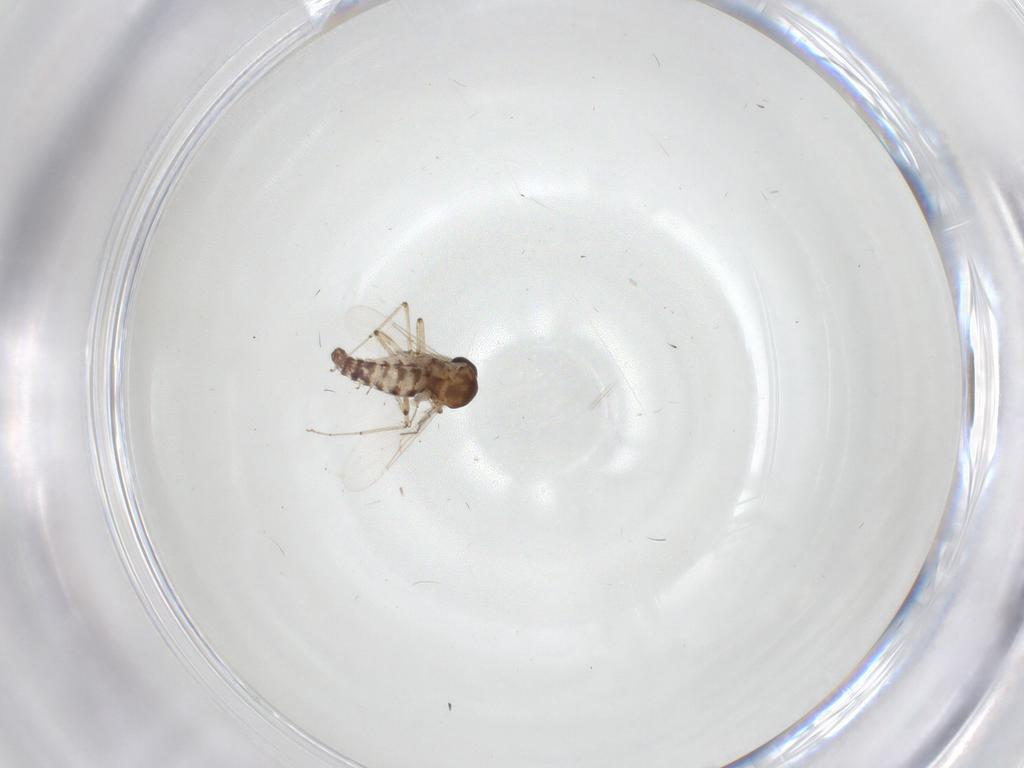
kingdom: Animalia
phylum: Arthropoda
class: Insecta
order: Diptera
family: Ceratopogonidae
